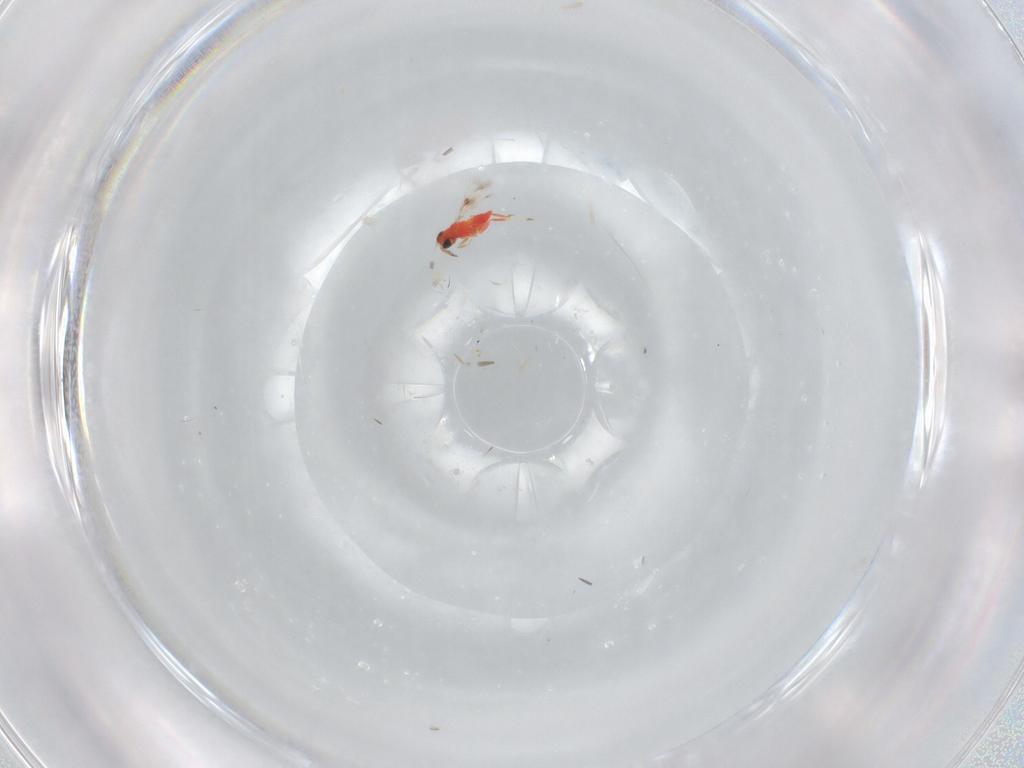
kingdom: Animalia
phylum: Arthropoda
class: Insecta
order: Hymenoptera
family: Trichogrammatidae
